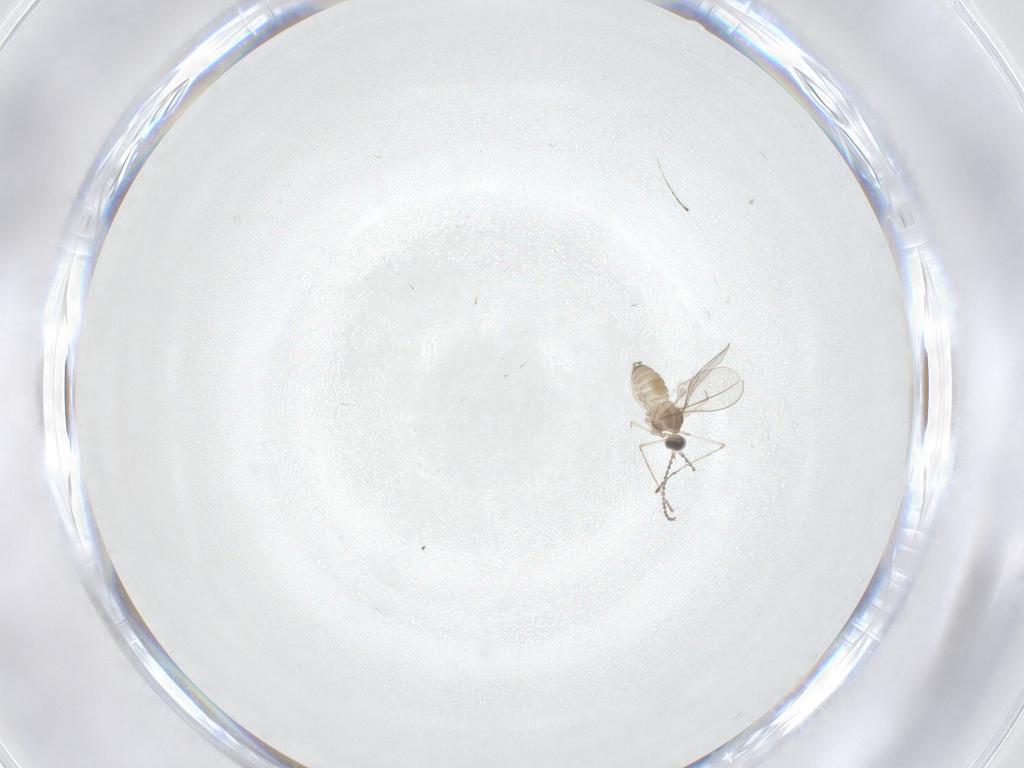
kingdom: Animalia
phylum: Arthropoda
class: Insecta
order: Diptera
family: Cecidomyiidae
